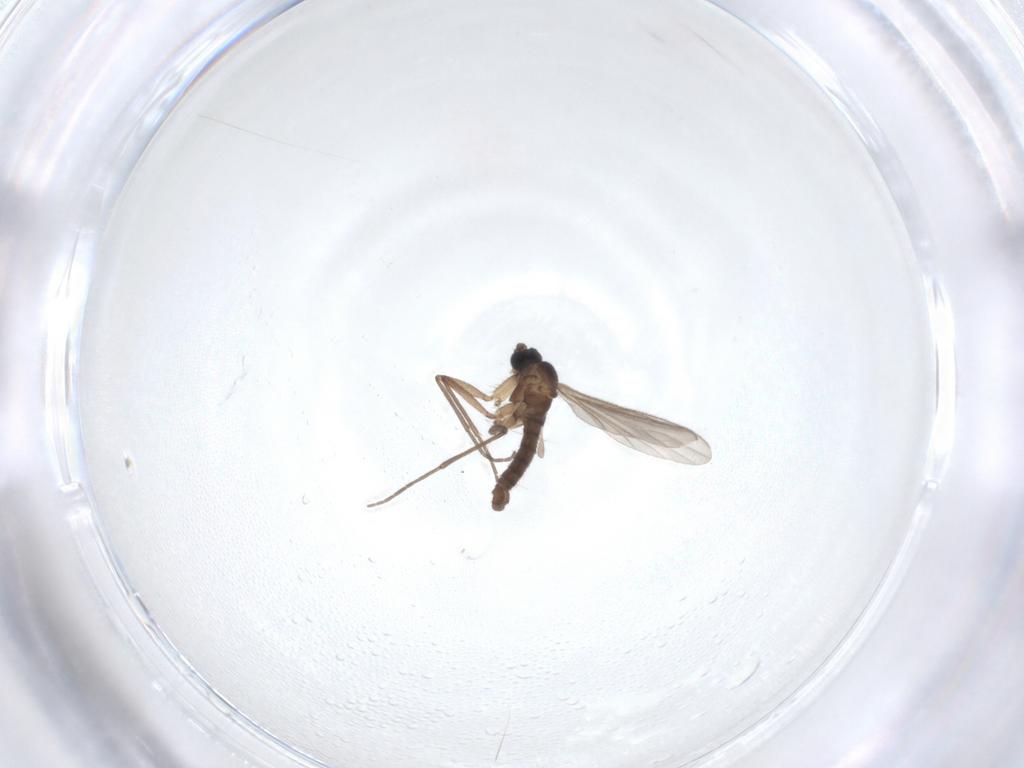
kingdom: Animalia
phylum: Arthropoda
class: Insecta
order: Diptera
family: Sciaridae
